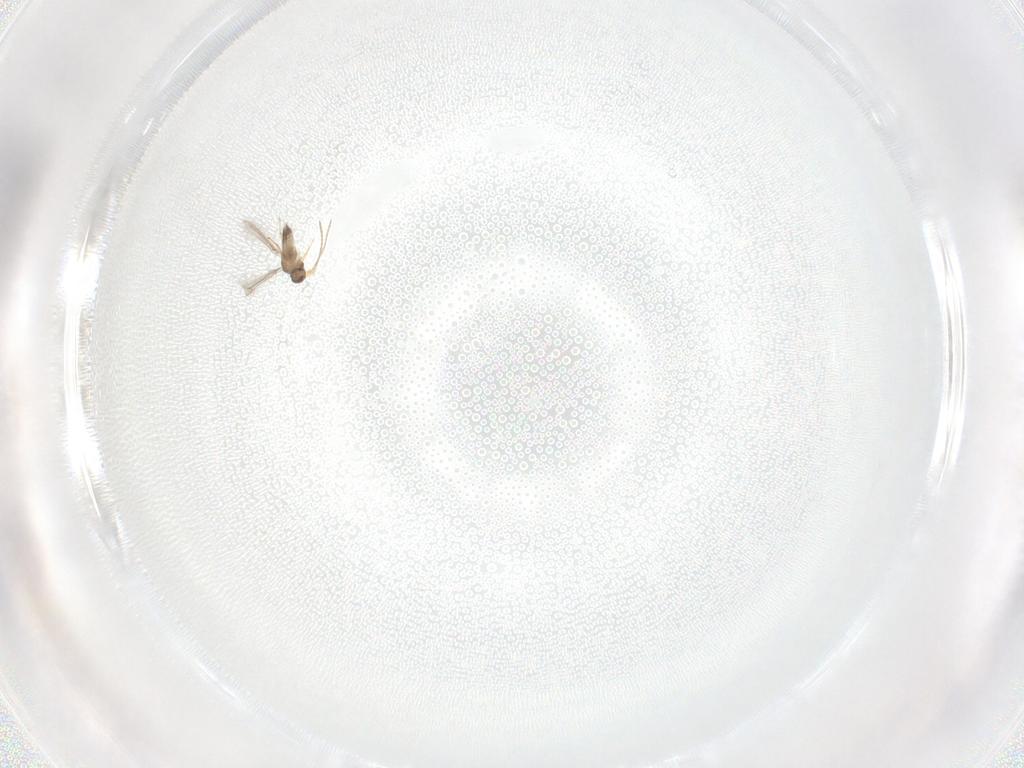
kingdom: Animalia
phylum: Arthropoda
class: Insecta
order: Hymenoptera
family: Mymaridae
